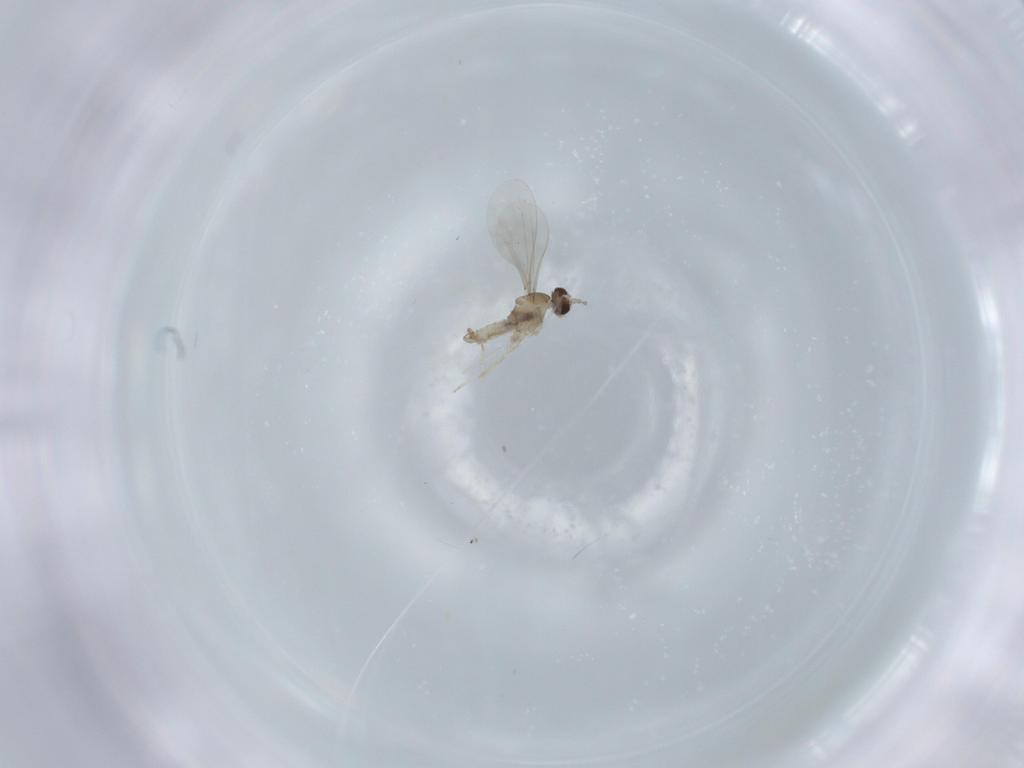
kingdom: Animalia
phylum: Arthropoda
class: Insecta
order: Diptera
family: Cecidomyiidae
